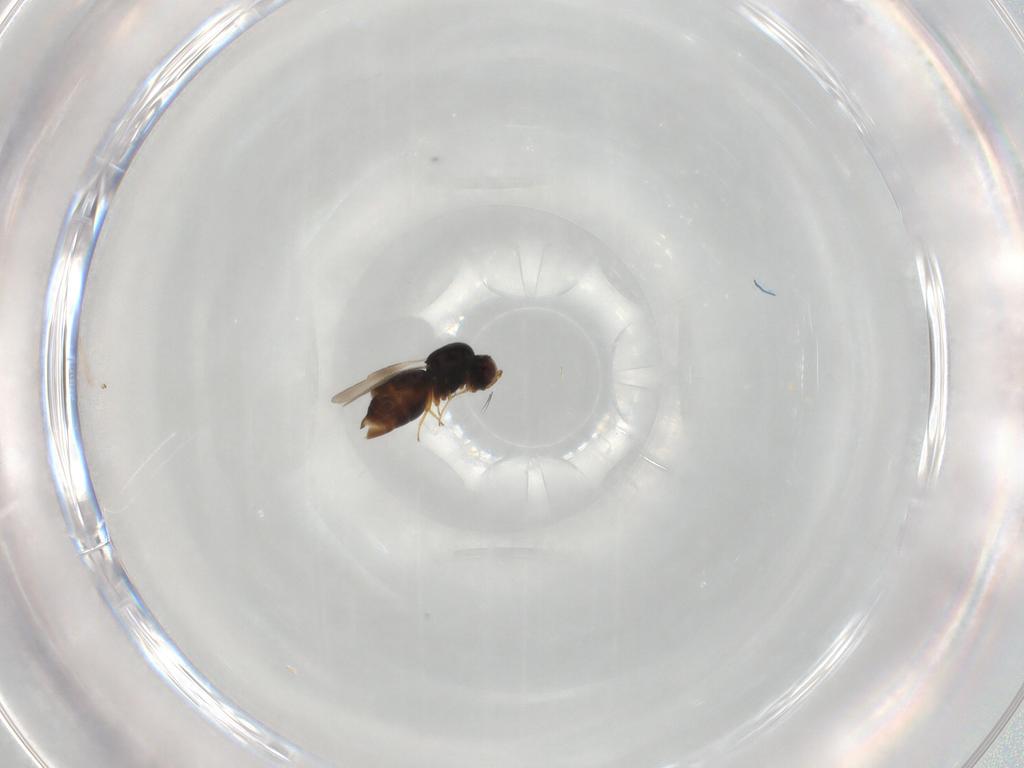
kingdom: Animalia
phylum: Arthropoda
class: Insecta
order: Hymenoptera
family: Ceraphronidae
